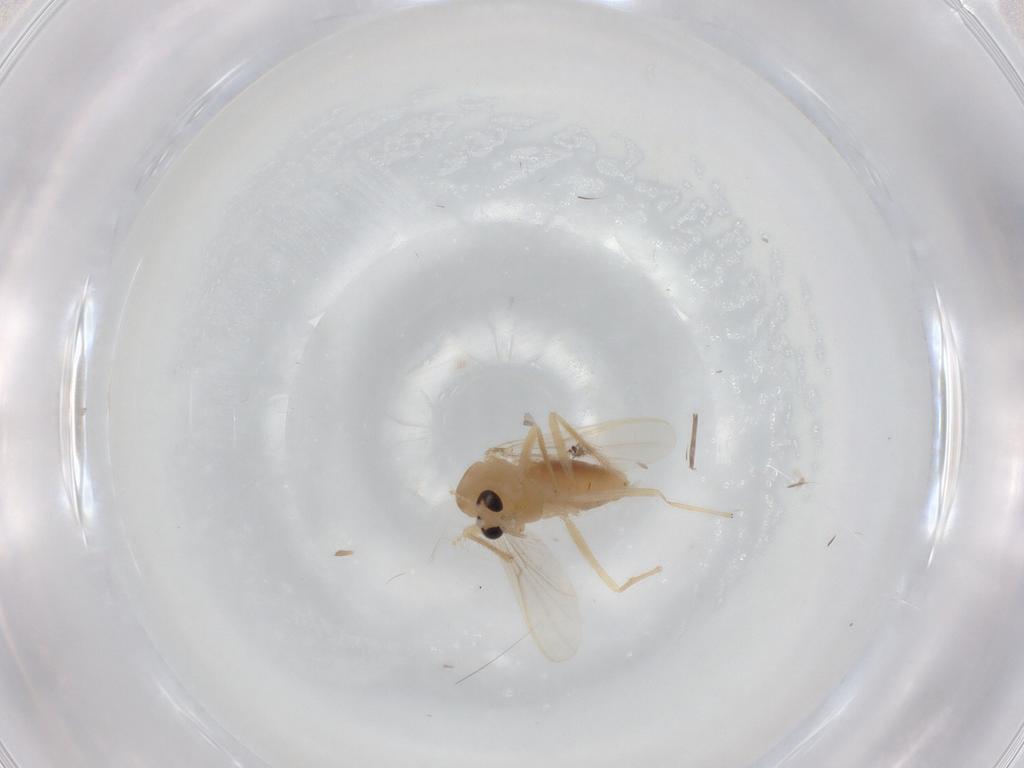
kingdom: Animalia
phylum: Arthropoda
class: Insecta
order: Diptera
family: Chironomidae
